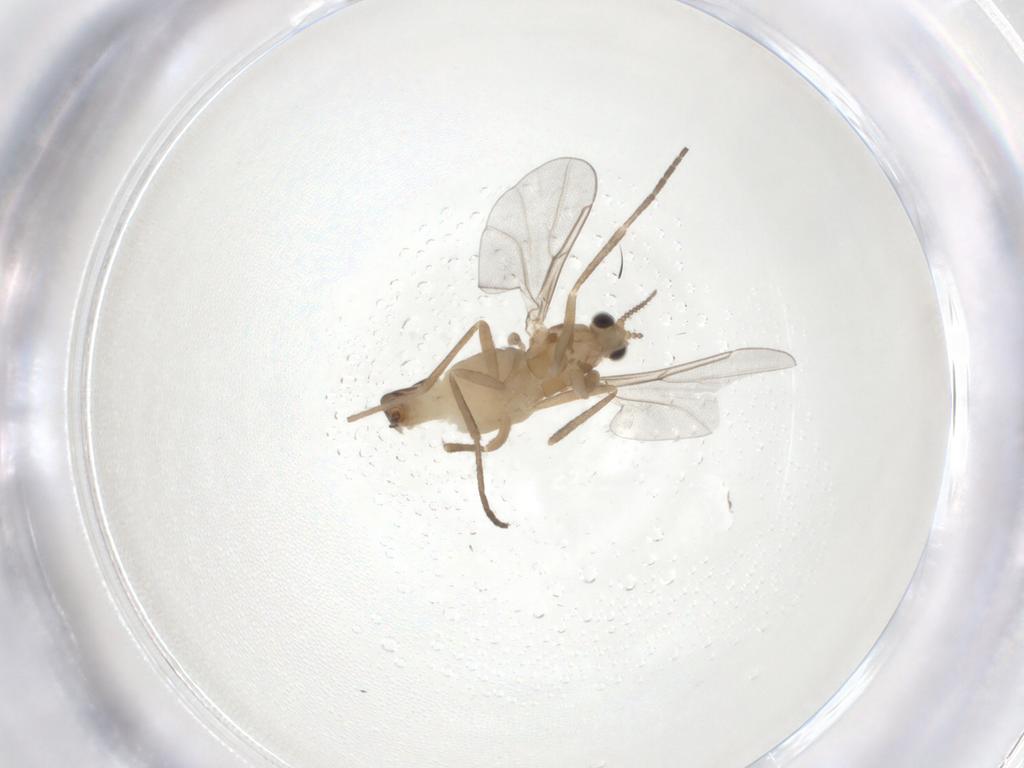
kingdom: Animalia
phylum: Arthropoda
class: Insecta
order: Diptera
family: Cecidomyiidae
